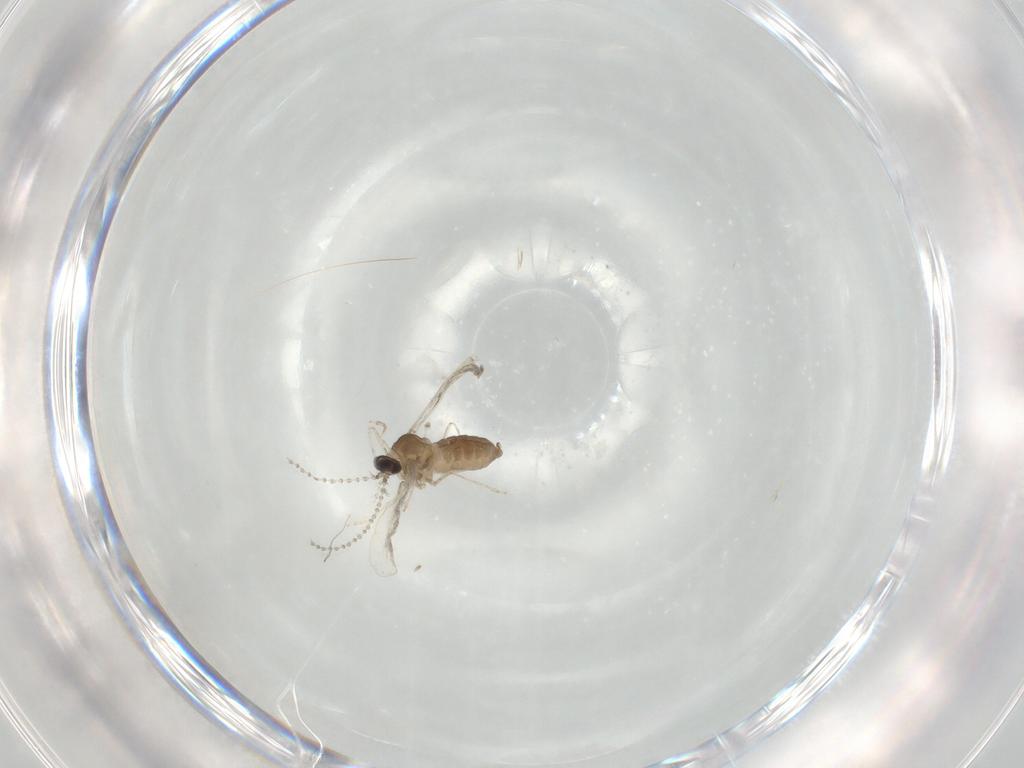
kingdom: Animalia
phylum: Arthropoda
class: Insecta
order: Diptera
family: Cecidomyiidae
